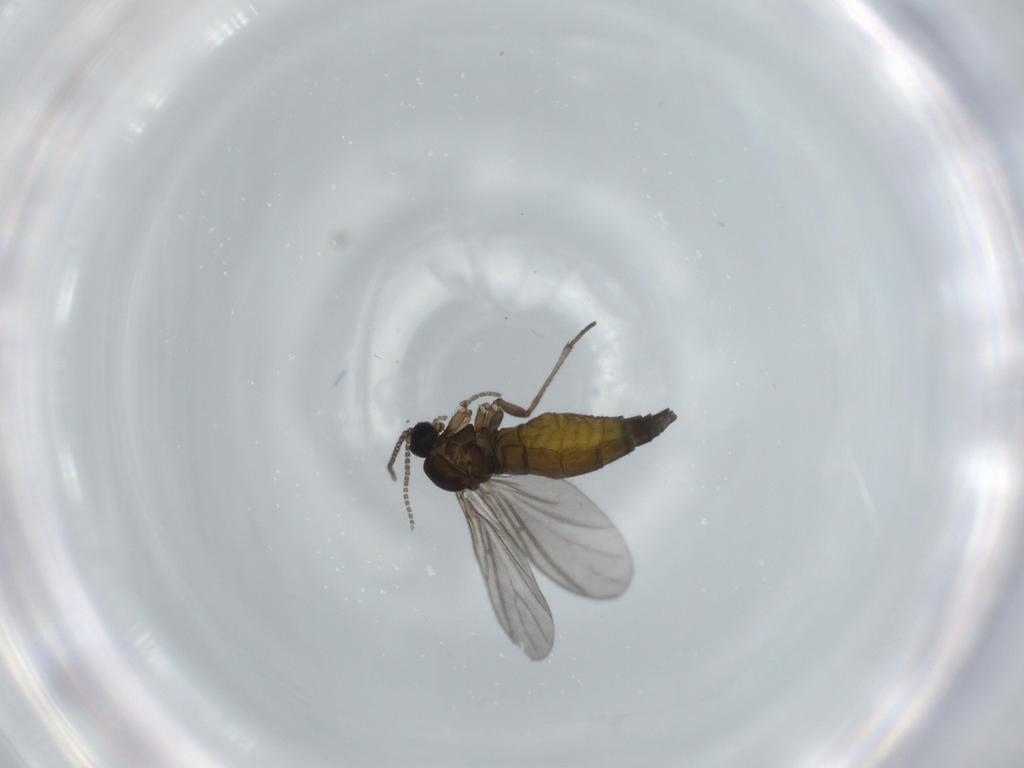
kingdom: Animalia
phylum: Arthropoda
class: Insecta
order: Diptera
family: Sciaridae
